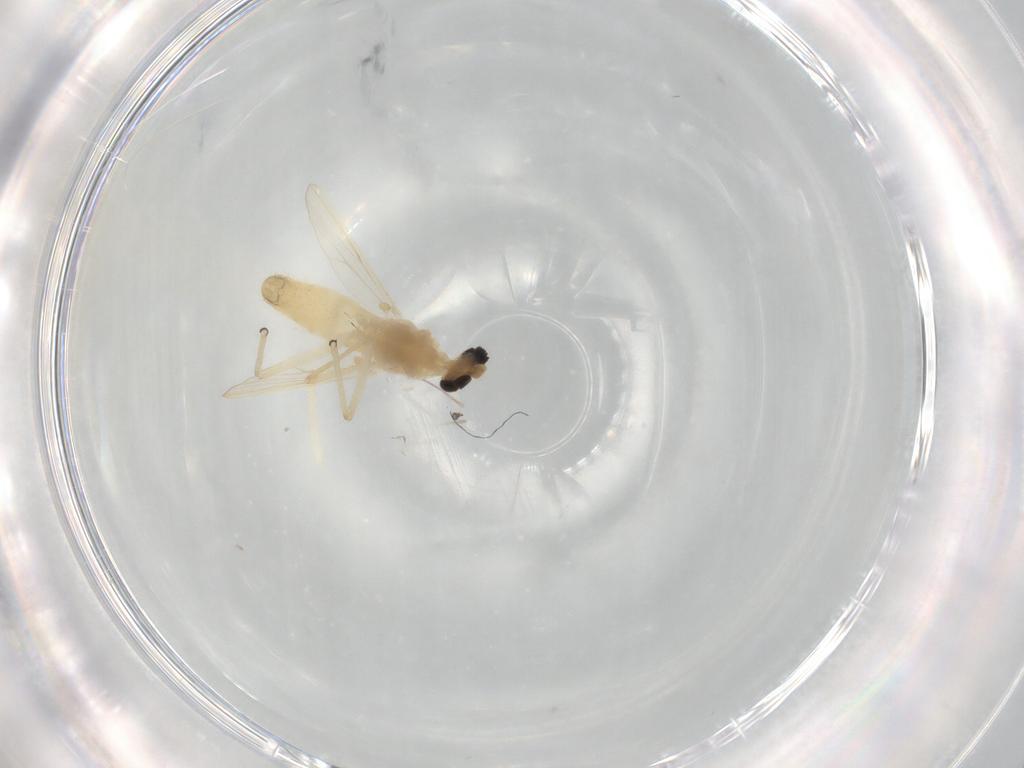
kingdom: Animalia
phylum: Arthropoda
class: Insecta
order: Diptera
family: Chironomidae
